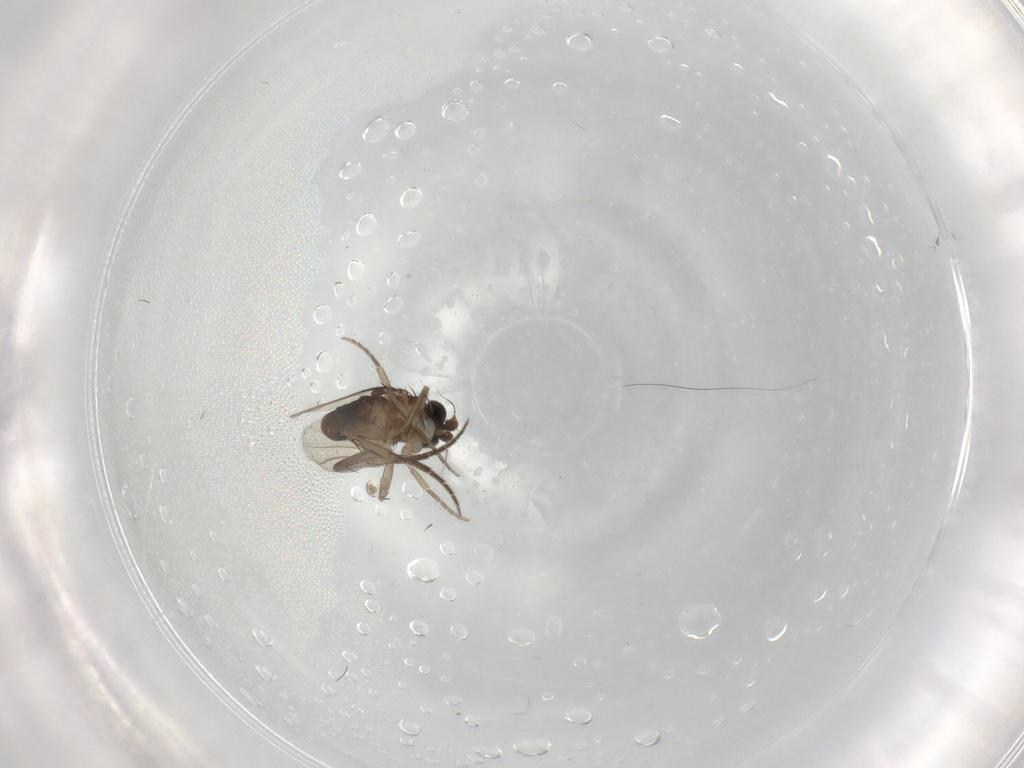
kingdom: Animalia
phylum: Arthropoda
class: Insecta
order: Diptera
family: Phoridae
